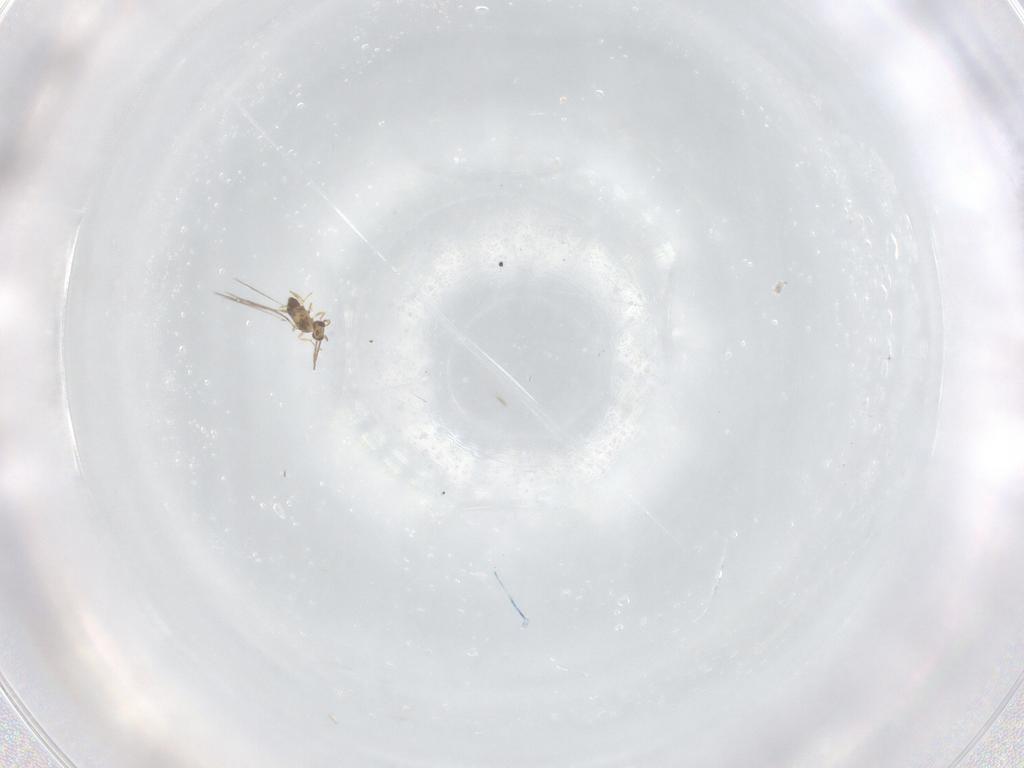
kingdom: Animalia
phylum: Arthropoda
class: Insecta
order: Hymenoptera
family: Mymaridae
